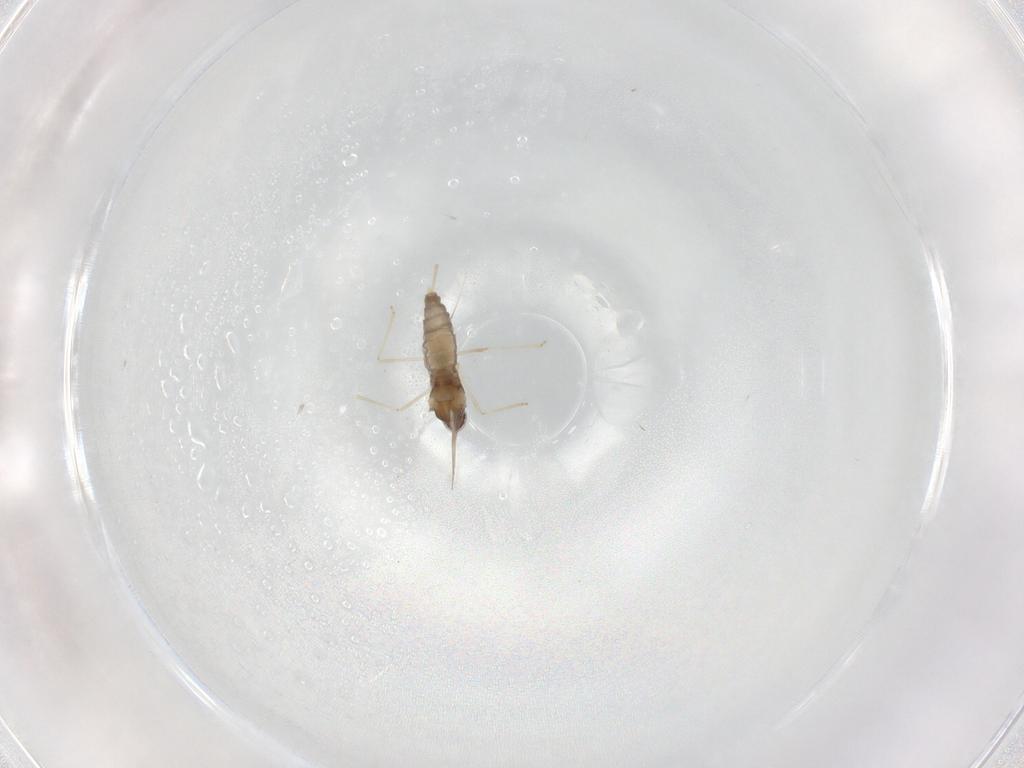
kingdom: Animalia
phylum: Arthropoda
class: Insecta
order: Diptera
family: Cecidomyiidae
